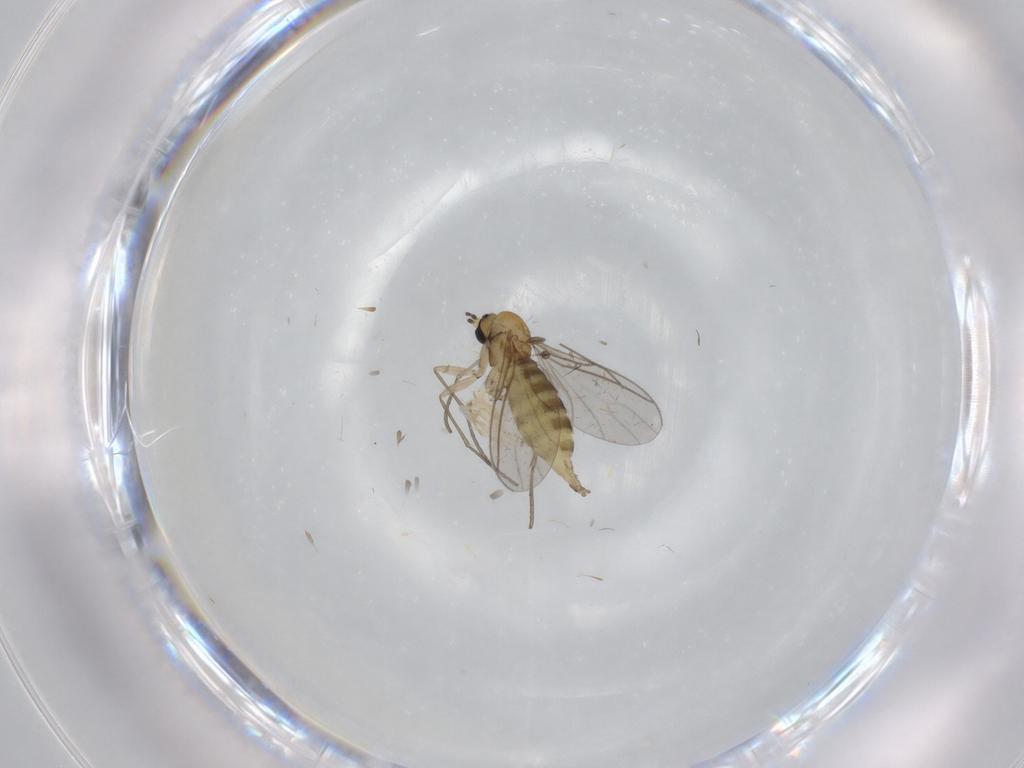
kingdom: Animalia
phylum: Arthropoda
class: Insecta
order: Diptera
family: Sciaridae
